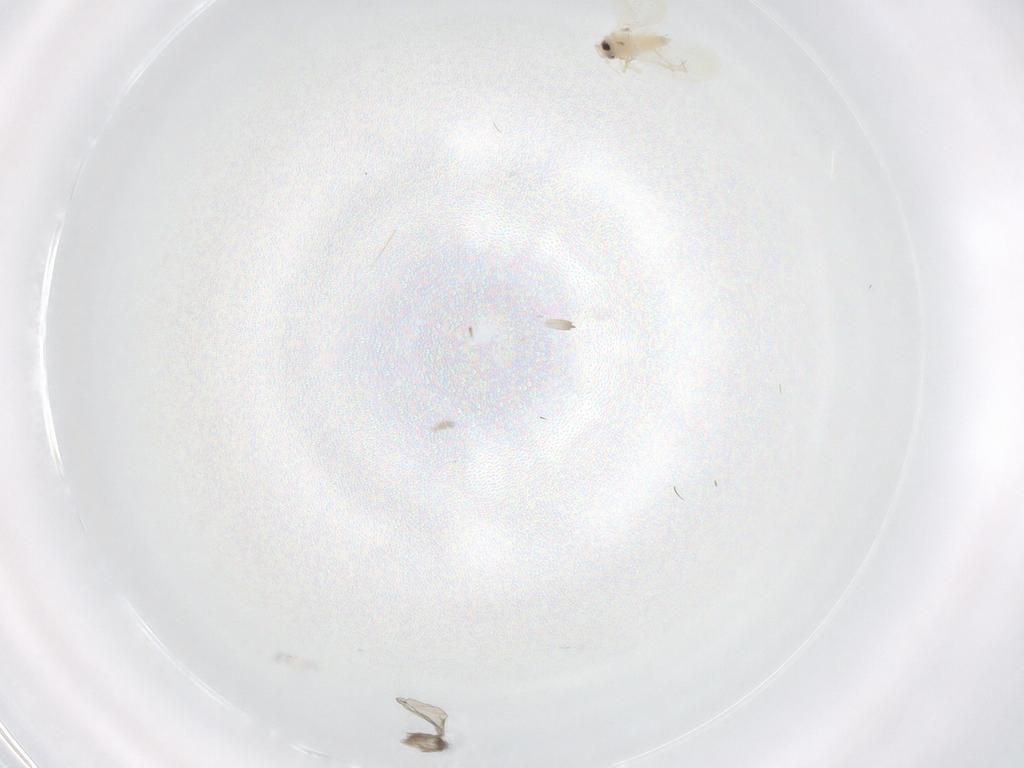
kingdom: Animalia
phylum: Arthropoda
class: Insecta
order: Hemiptera
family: Aleyrodidae
